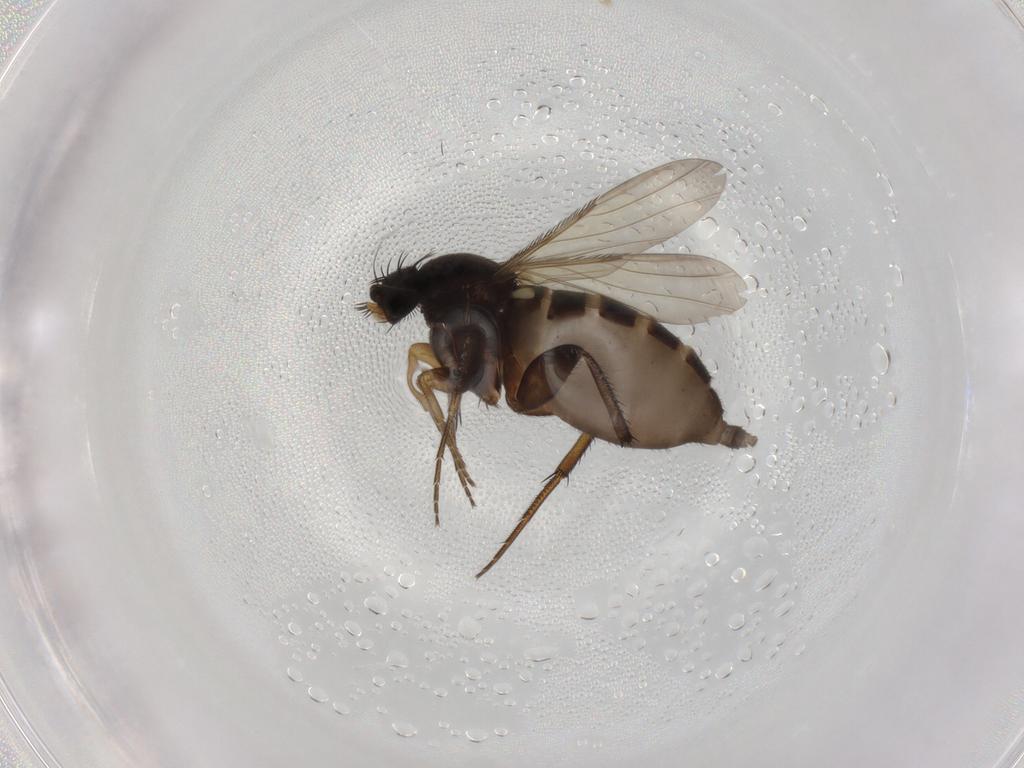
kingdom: Animalia
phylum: Arthropoda
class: Insecta
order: Diptera
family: Phoridae
